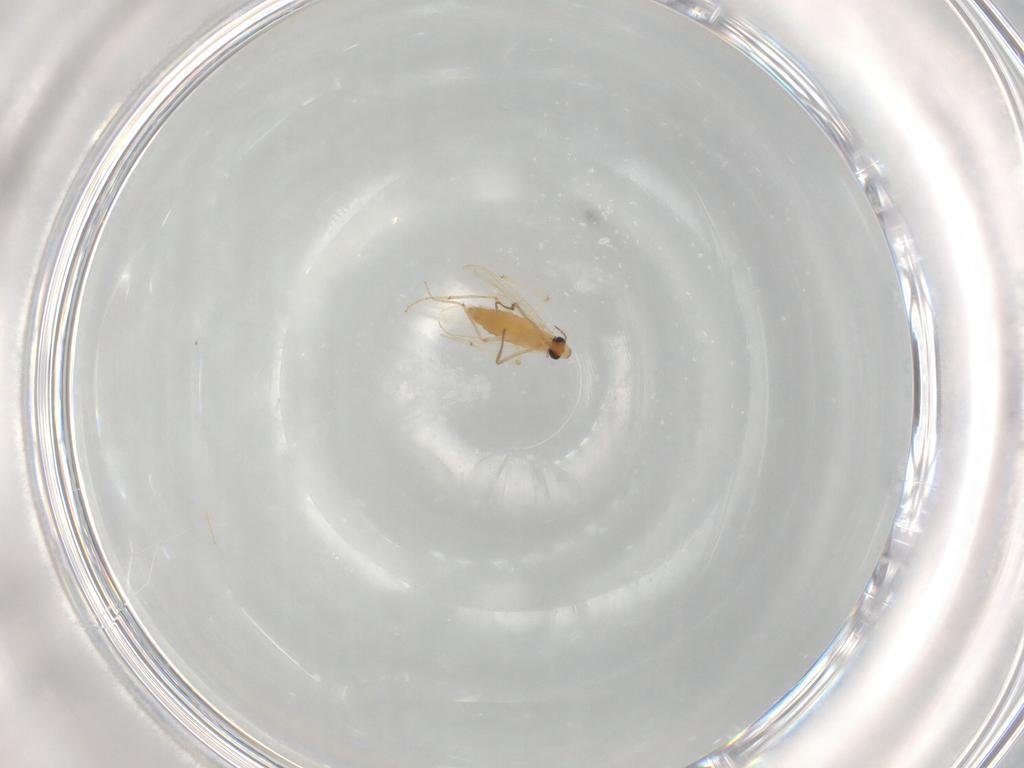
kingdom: Animalia
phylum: Arthropoda
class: Insecta
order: Diptera
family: Chironomidae
